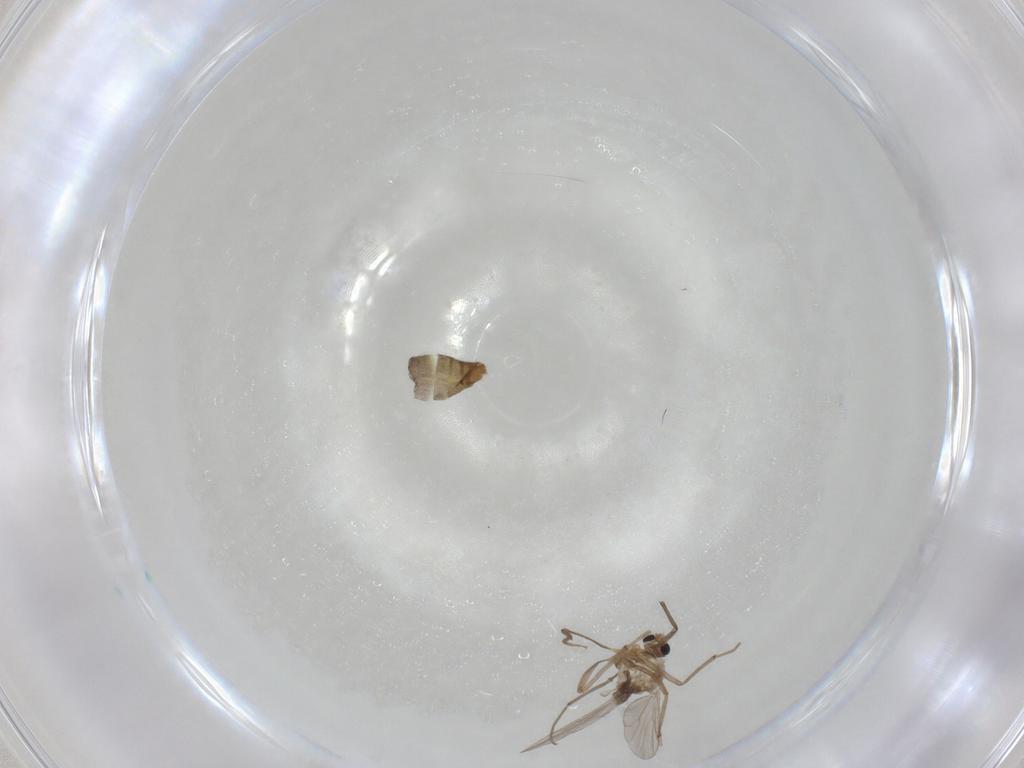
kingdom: Animalia
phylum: Arthropoda
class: Insecta
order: Diptera
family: Chironomidae
